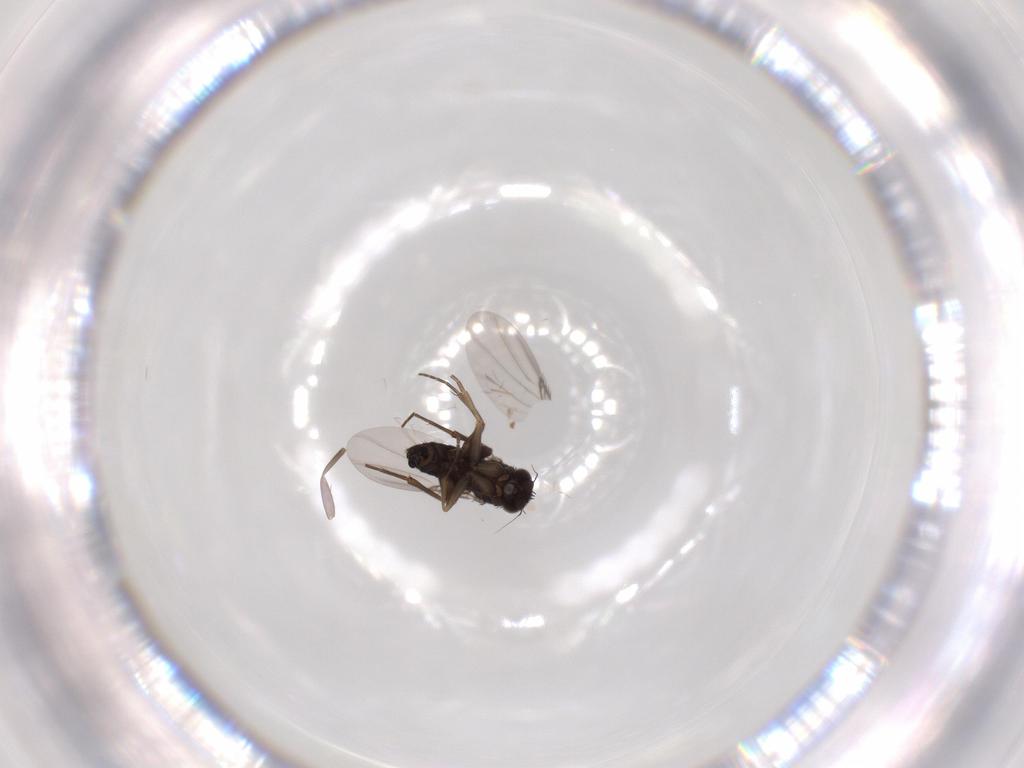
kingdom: Animalia
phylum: Arthropoda
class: Insecta
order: Diptera
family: Phoridae
